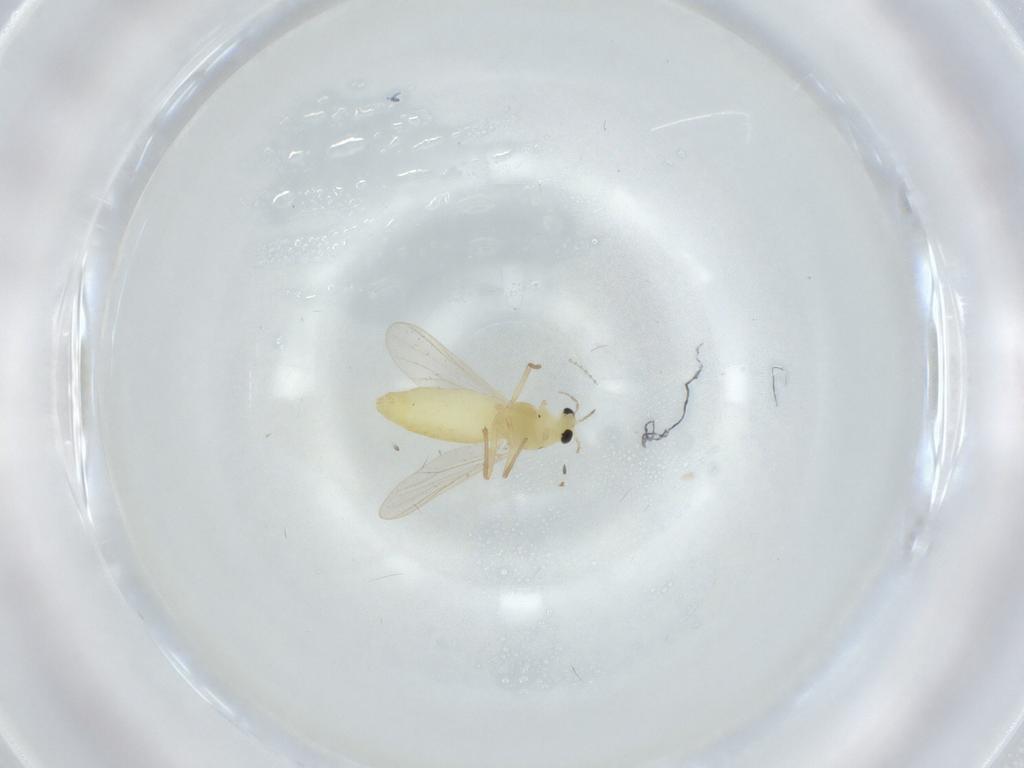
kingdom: Animalia
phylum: Arthropoda
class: Insecta
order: Diptera
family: Chironomidae
